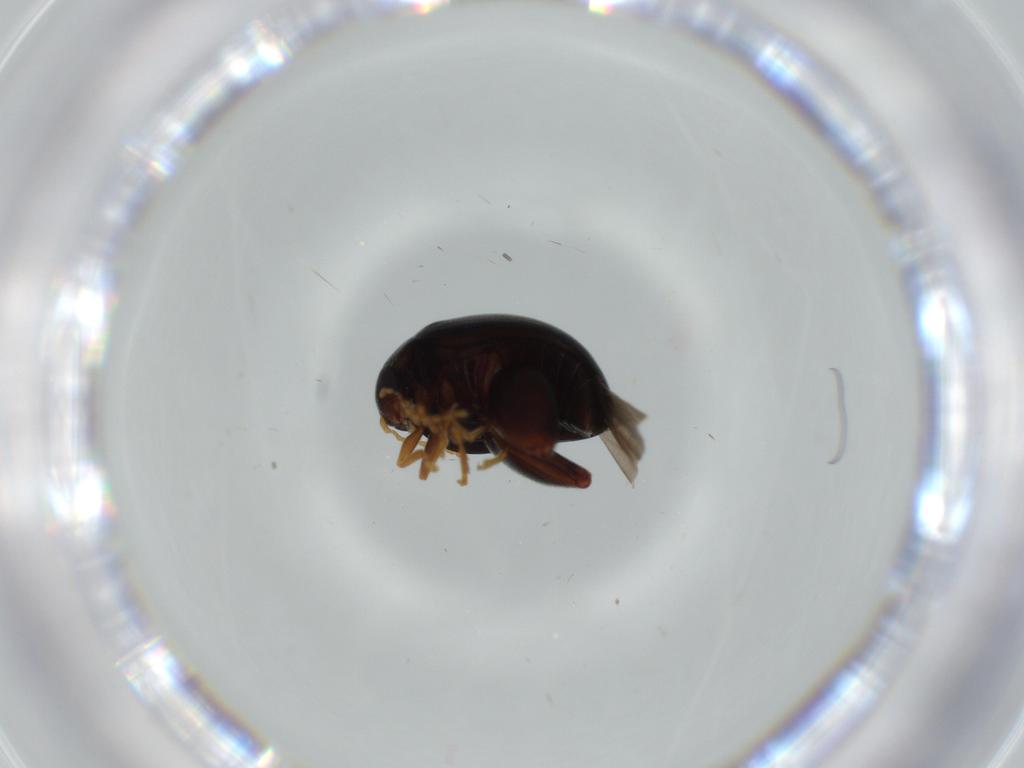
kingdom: Animalia
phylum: Arthropoda
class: Insecta
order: Coleoptera
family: Chrysomelidae
